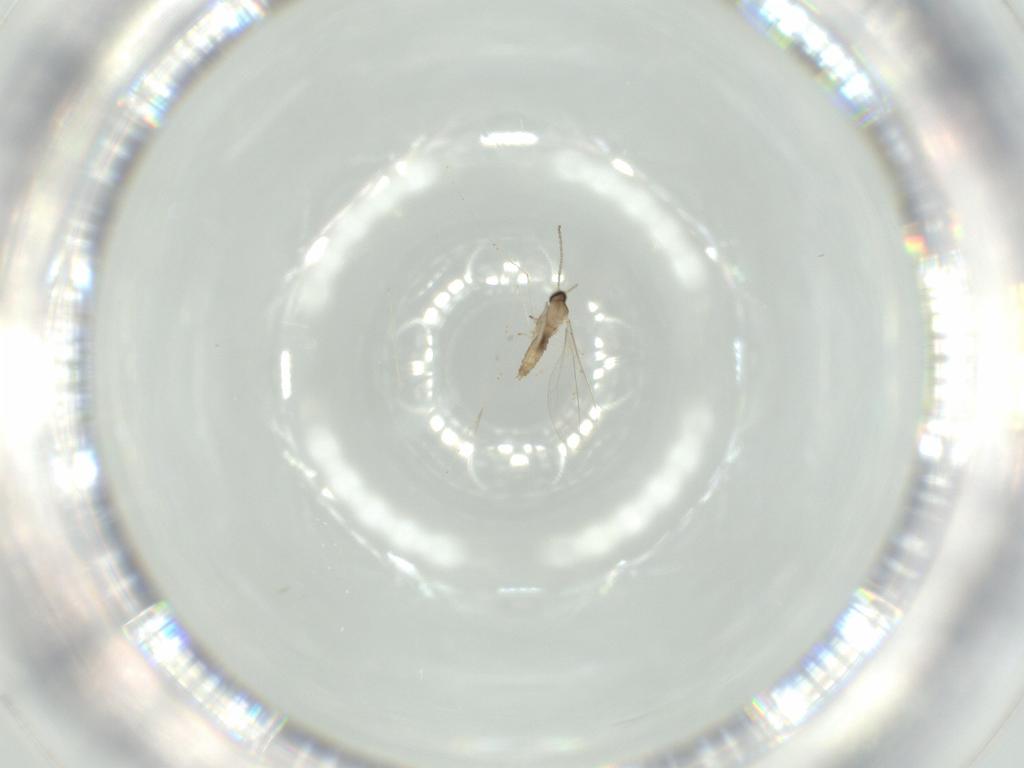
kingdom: Animalia
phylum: Arthropoda
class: Insecta
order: Diptera
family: Cecidomyiidae
